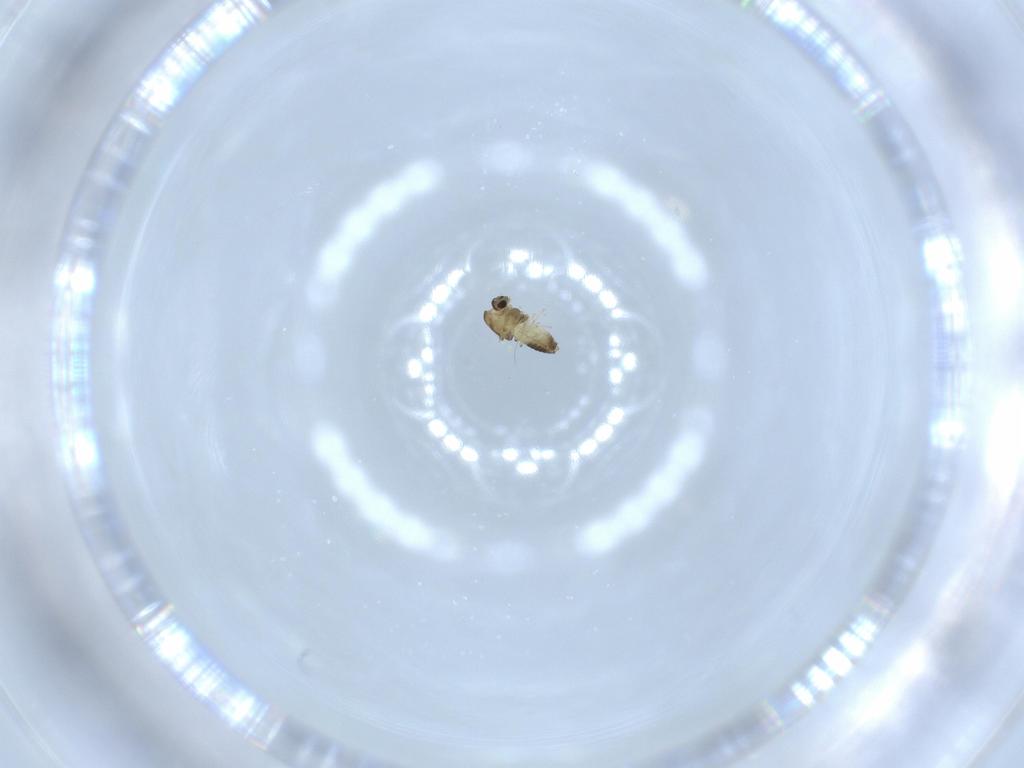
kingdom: Animalia
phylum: Arthropoda
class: Insecta
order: Diptera
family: Chironomidae
